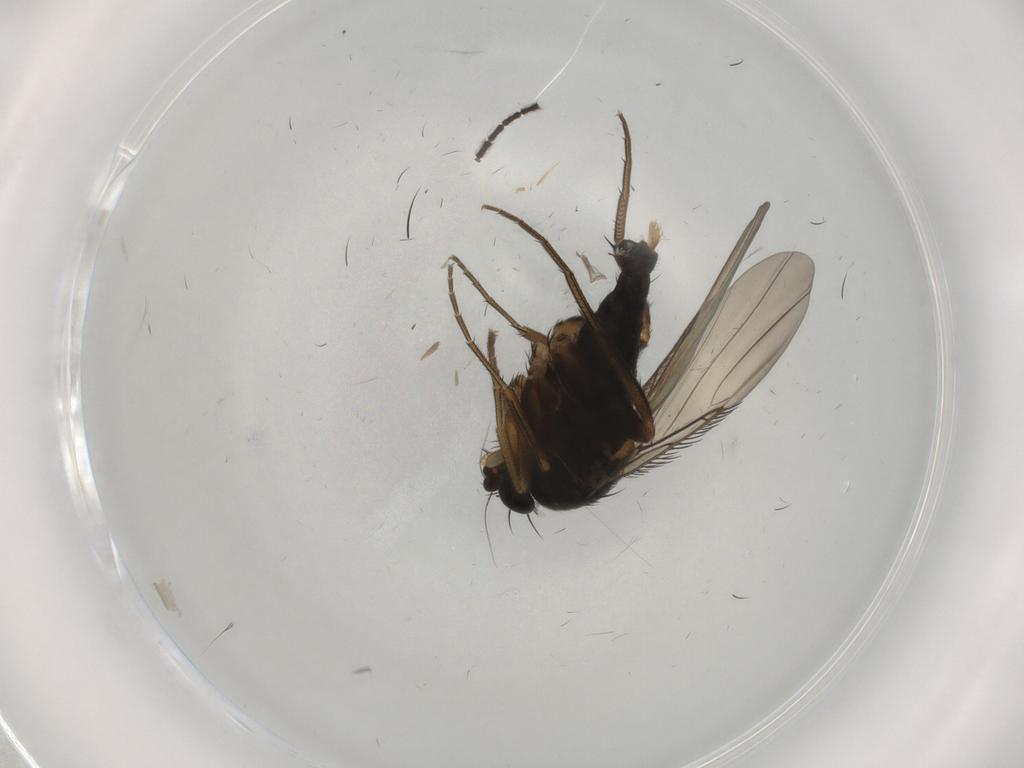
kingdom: Animalia
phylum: Arthropoda
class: Insecta
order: Diptera
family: Phoridae
